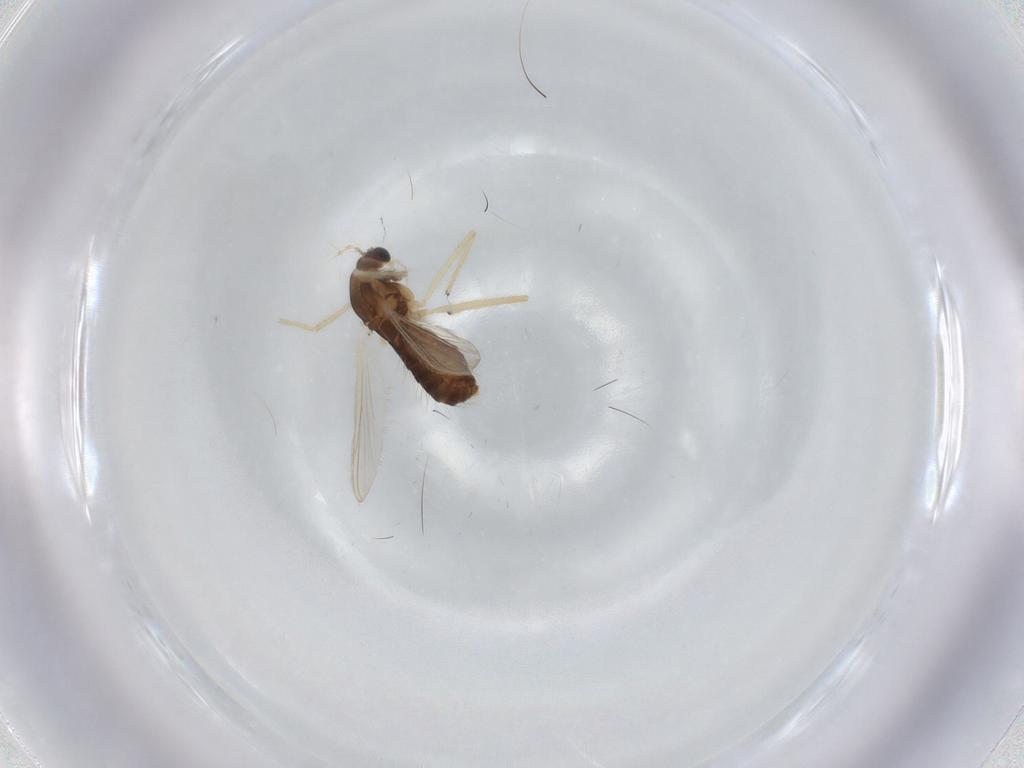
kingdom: Animalia
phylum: Arthropoda
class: Insecta
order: Diptera
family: Chironomidae
